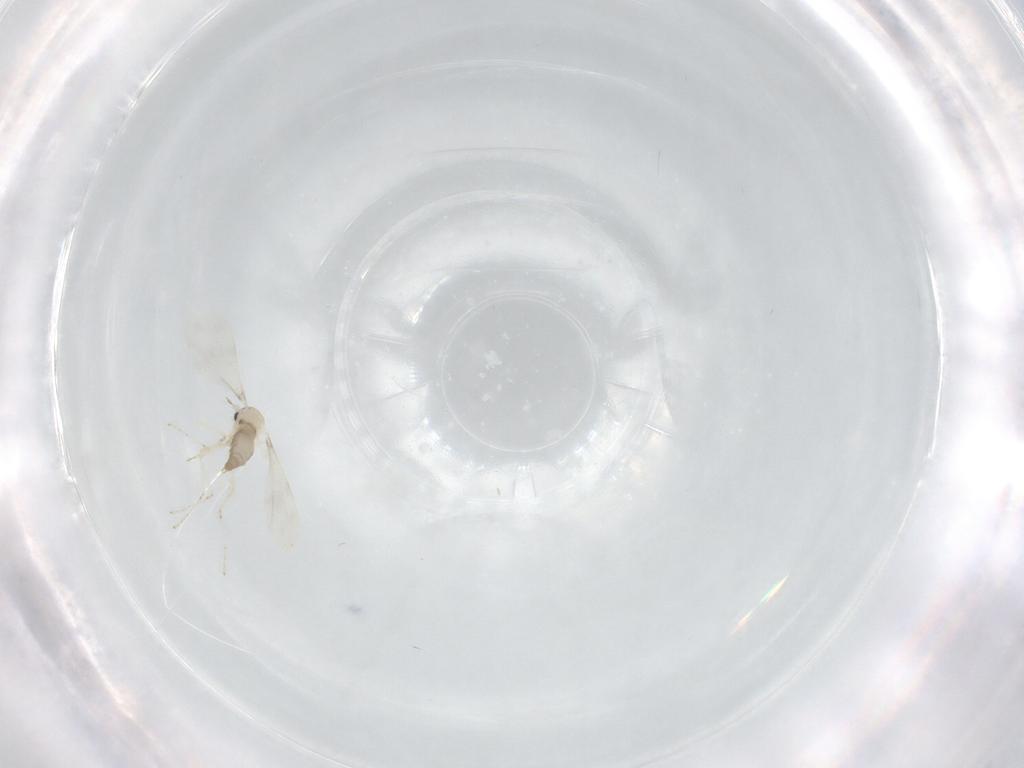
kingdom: Animalia
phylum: Arthropoda
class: Insecta
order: Diptera
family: Cecidomyiidae
